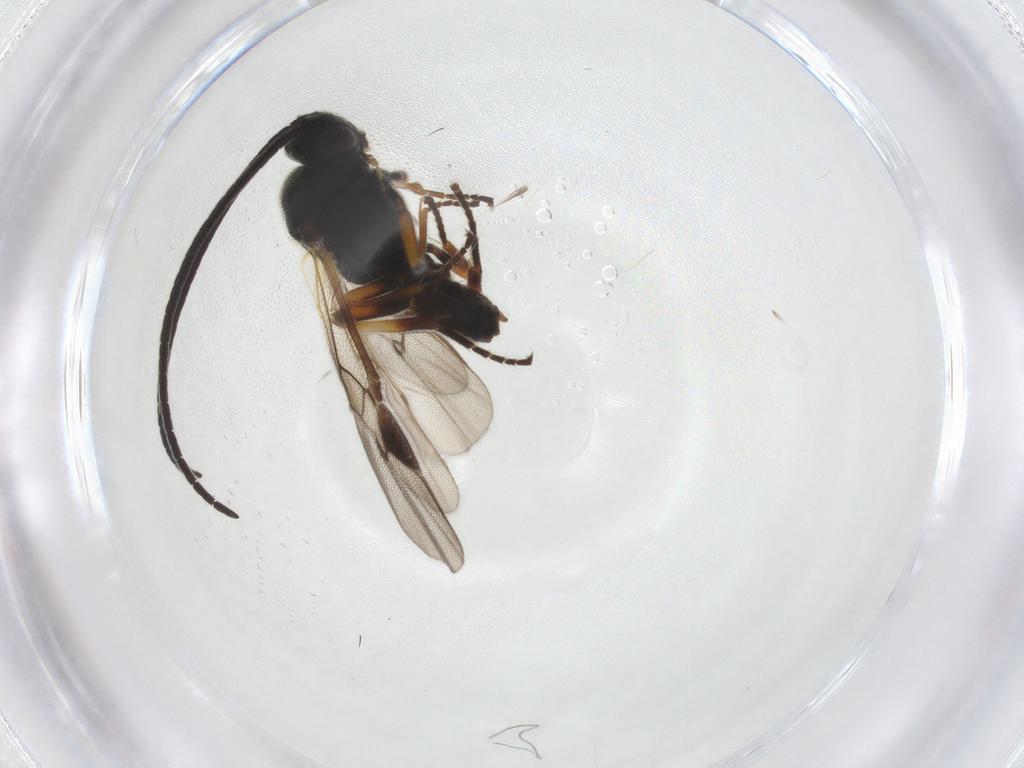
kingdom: Animalia
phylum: Arthropoda
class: Insecta
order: Hymenoptera
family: Braconidae
